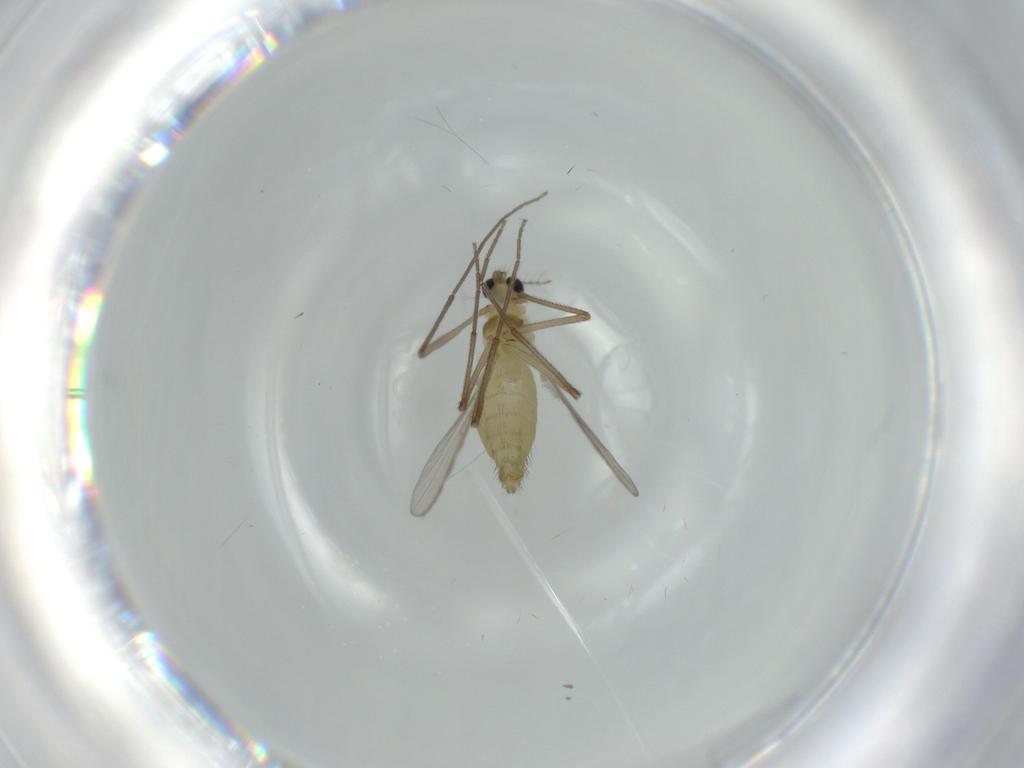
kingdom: Animalia
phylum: Arthropoda
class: Insecta
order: Diptera
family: Chironomidae
